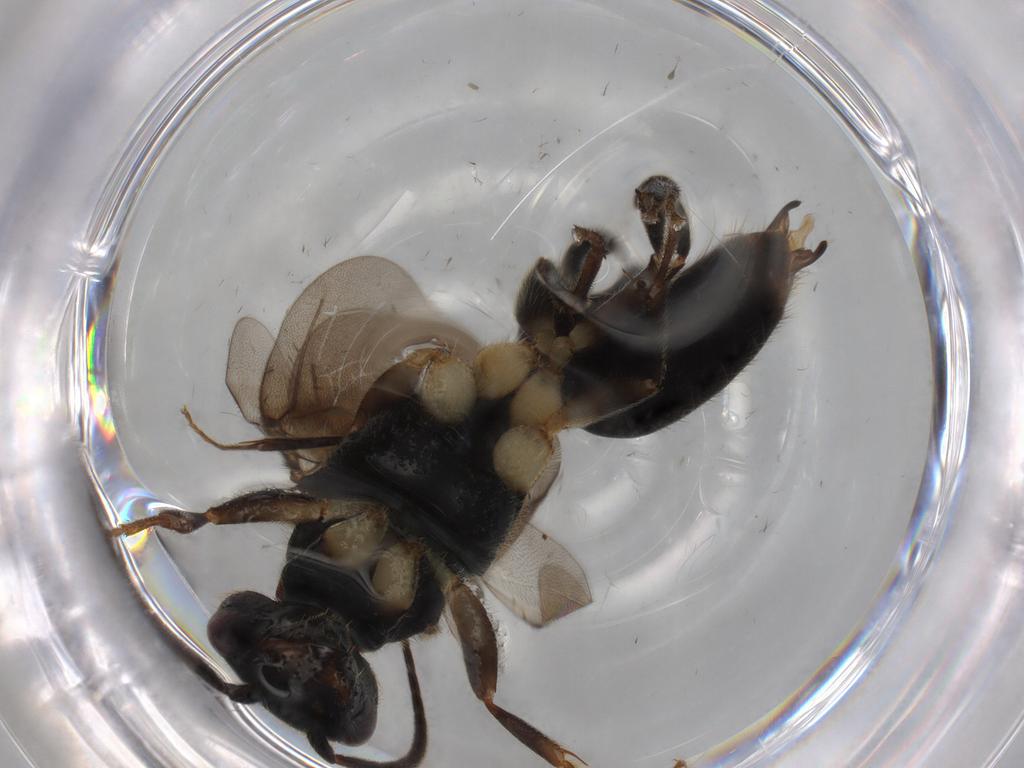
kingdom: Animalia
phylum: Arthropoda
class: Insecta
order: Hymenoptera
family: Bethylidae
